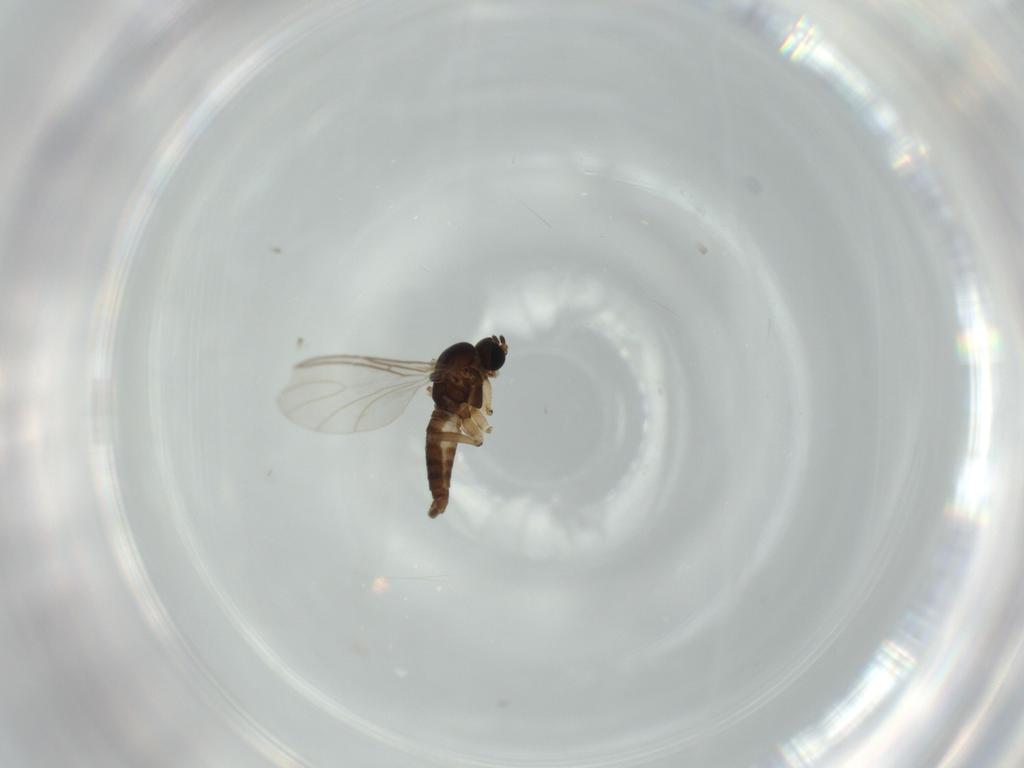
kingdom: Animalia
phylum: Arthropoda
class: Insecta
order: Diptera
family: Sciaridae
